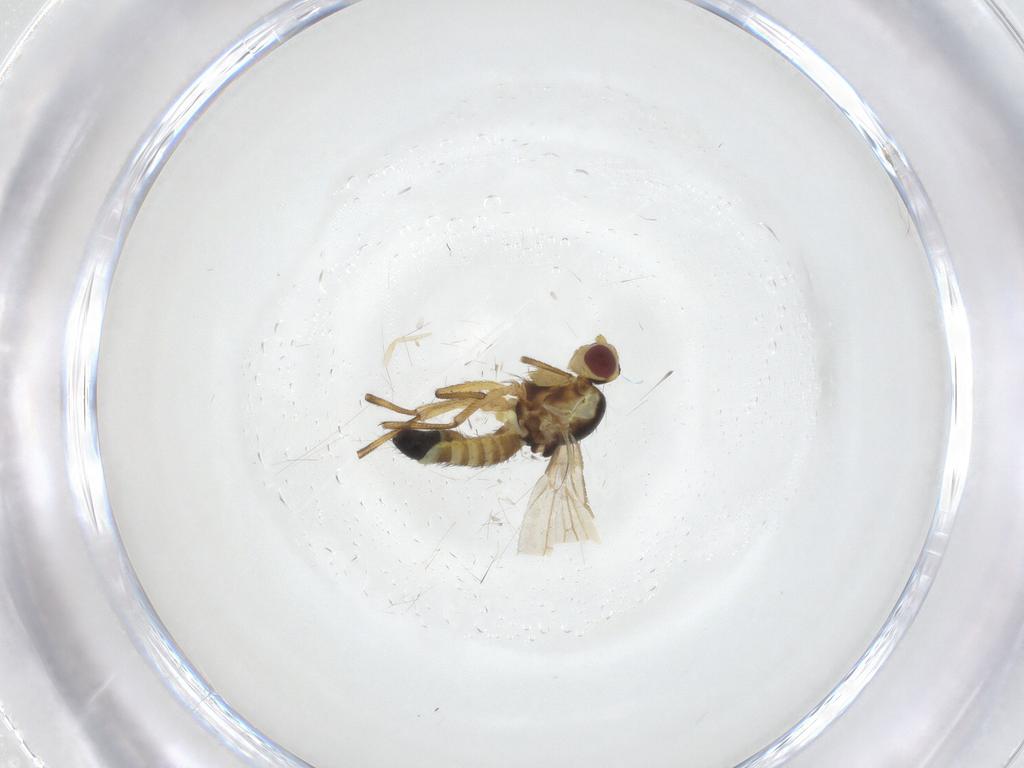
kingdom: Animalia
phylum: Arthropoda
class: Insecta
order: Diptera
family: Agromyzidae
